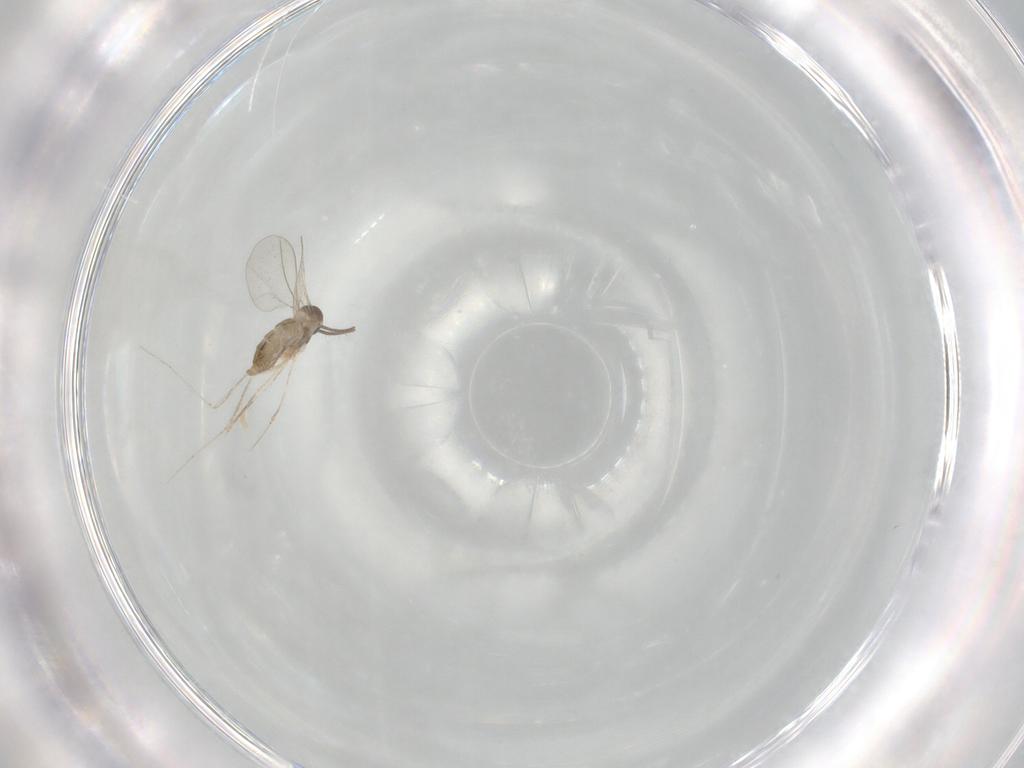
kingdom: Animalia
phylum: Arthropoda
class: Insecta
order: Diptera
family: Cecidomyiidae
